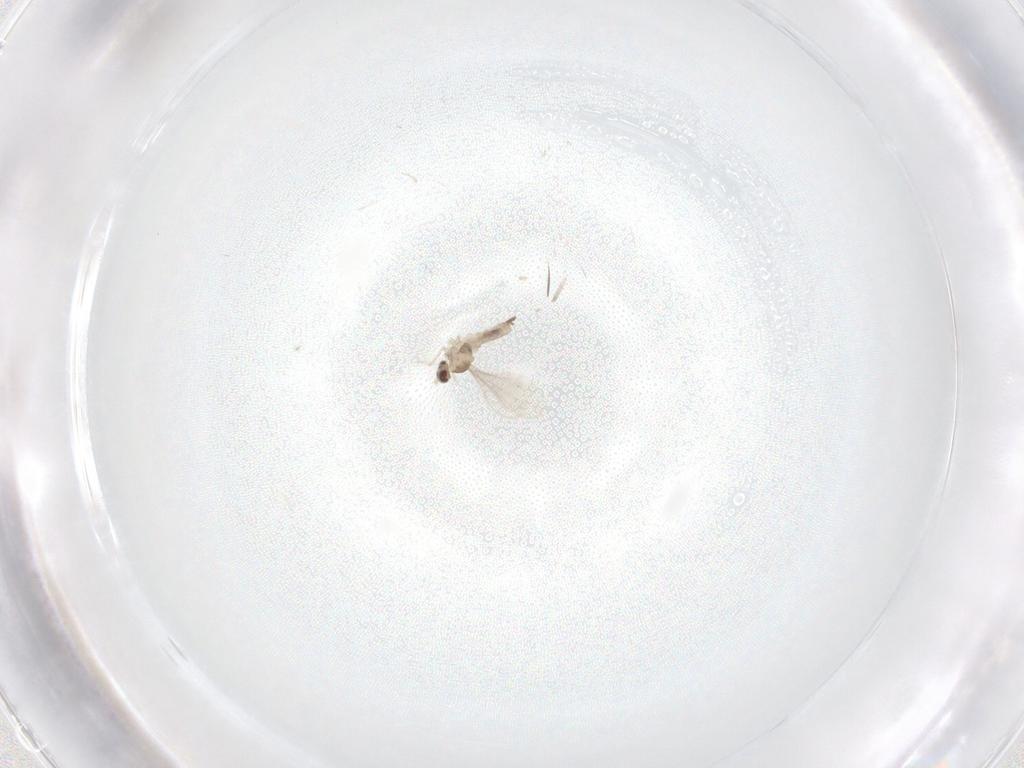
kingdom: Animalia
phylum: Arthropoda
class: Insecta
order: Diptera
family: Cecidomyiidae
